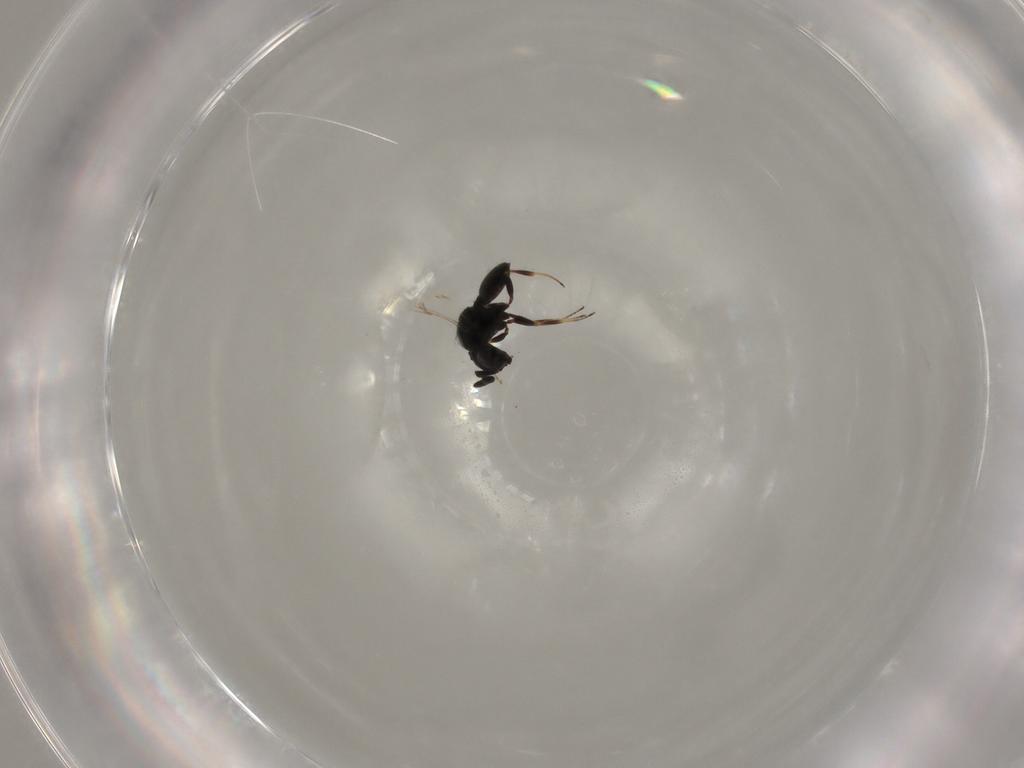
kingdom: Animalia
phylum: Arthropoda
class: Insecta
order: Hymenoptera
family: Scelionidae
